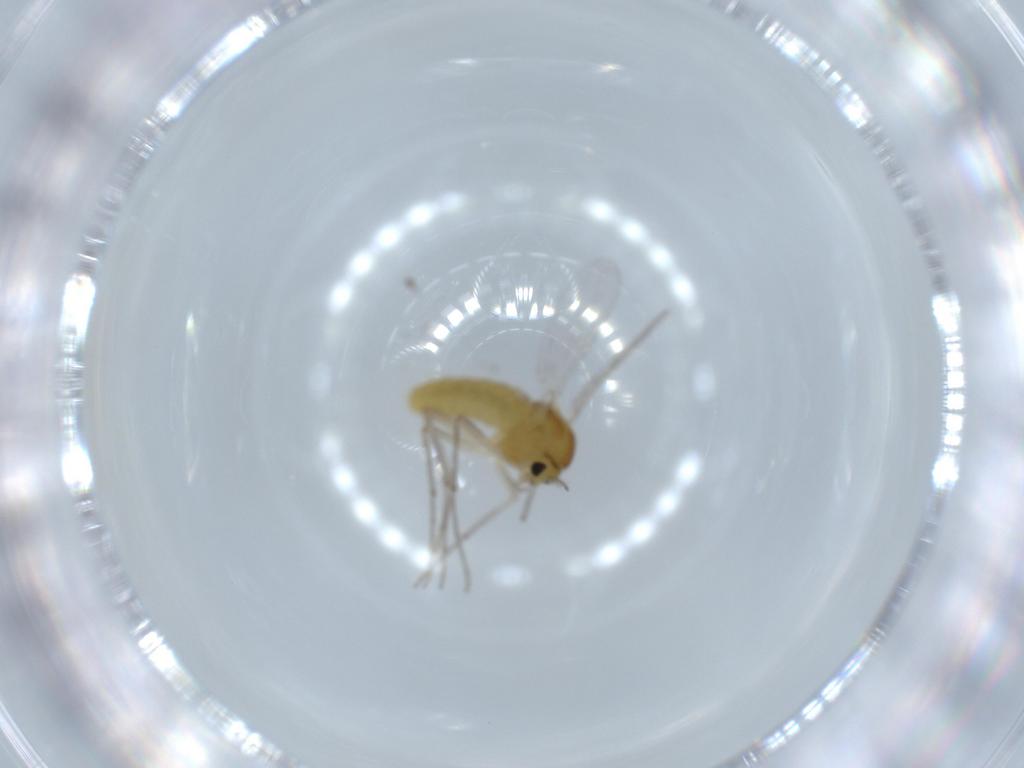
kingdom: Animalia
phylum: Arthropoda
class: Insecta
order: Diptera
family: Chironomidae
